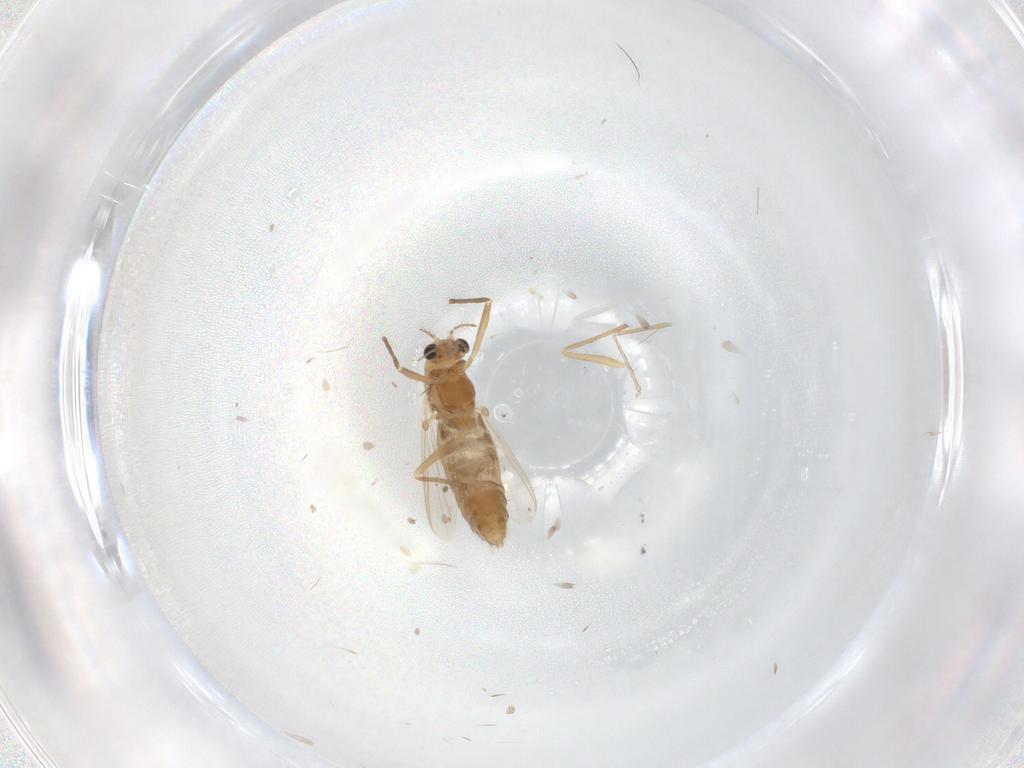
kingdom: Animalia
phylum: Arthropoda
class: Insecta
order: Diptera
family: Chironomidae
